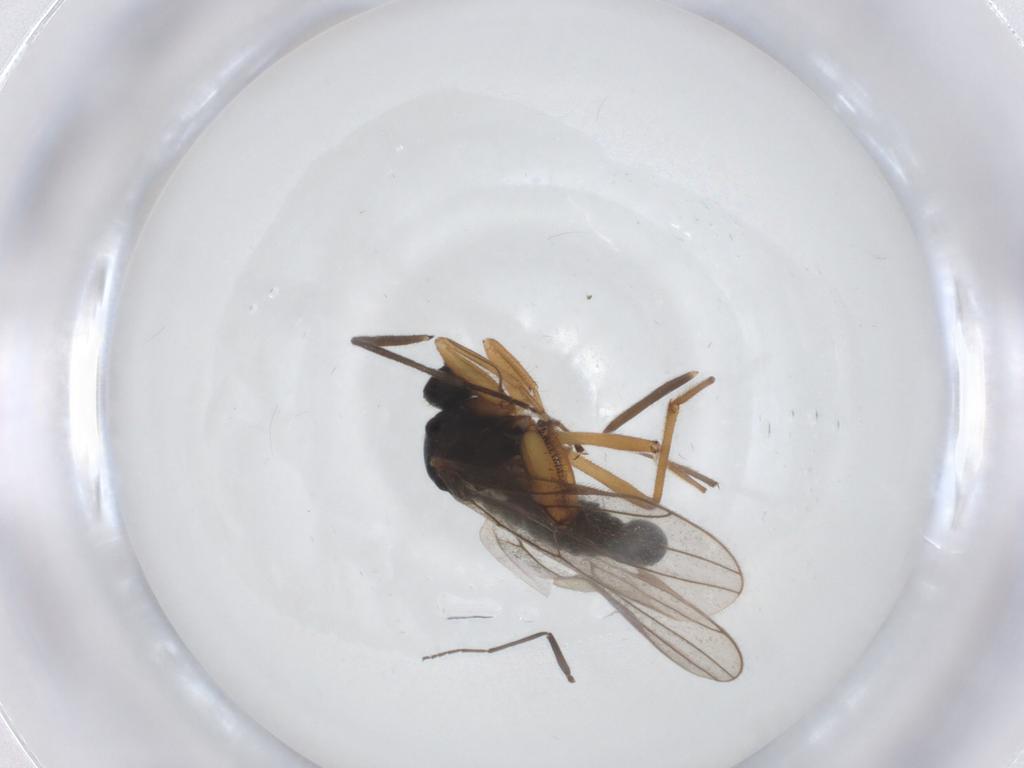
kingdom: Animalia
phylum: Arthropoda
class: Insecta
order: Diptera
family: Hybotidae
